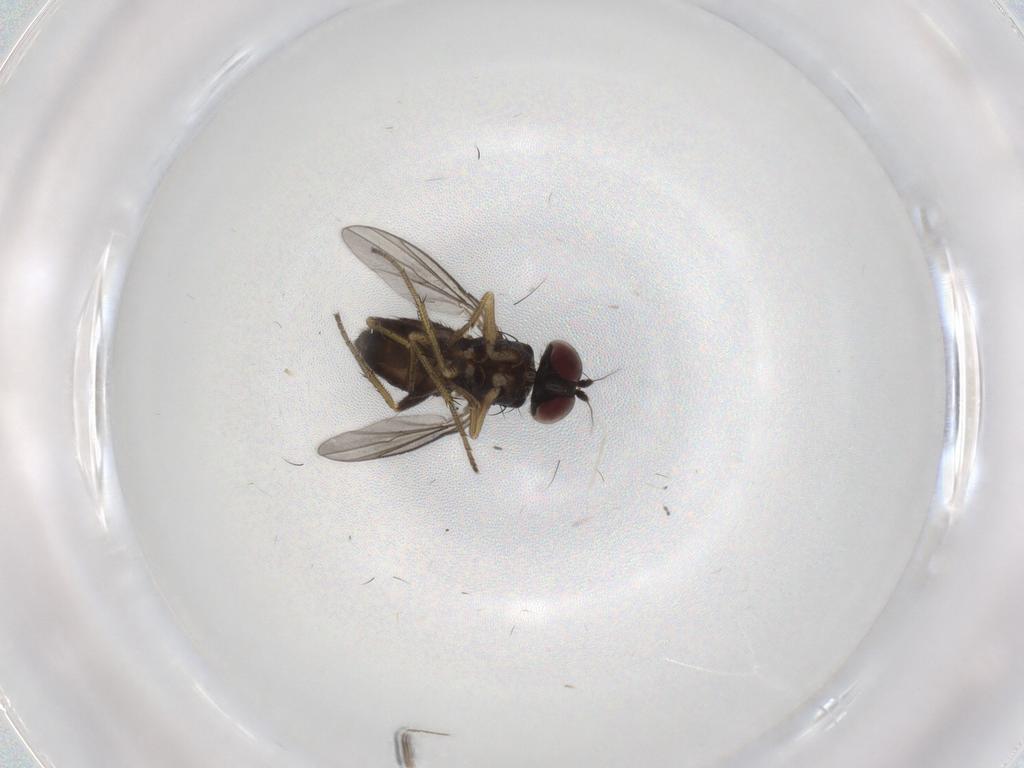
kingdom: Animalia
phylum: Arthropoda
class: Insecta
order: Diptera
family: Ceratopogonidae
